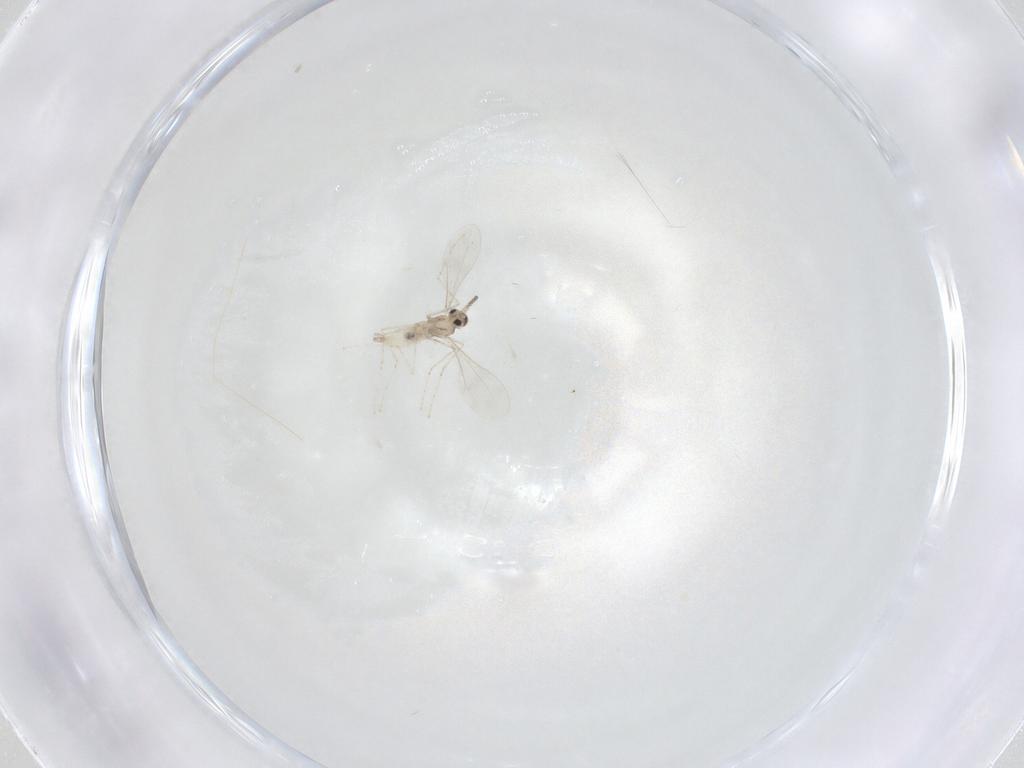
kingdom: Animalia
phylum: Arthropoda
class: Insecta
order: Diptera
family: Cecidomyiidae
